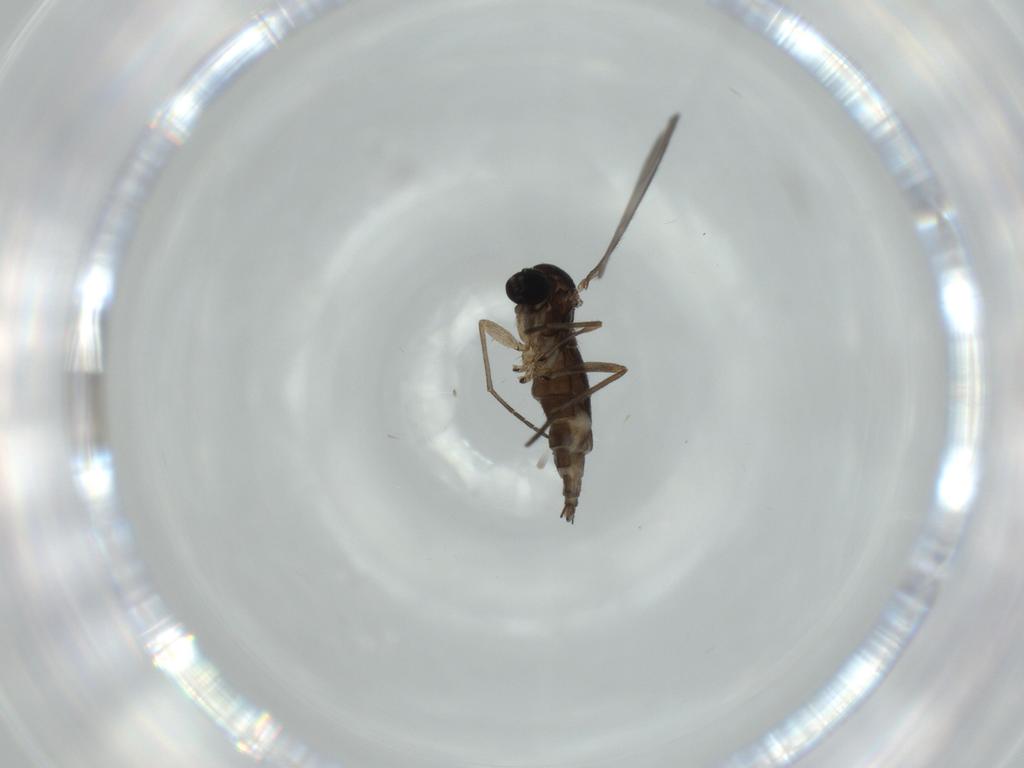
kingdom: Animalia
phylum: Arthropoda
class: Insecta
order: Diptera
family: Sciaridae
